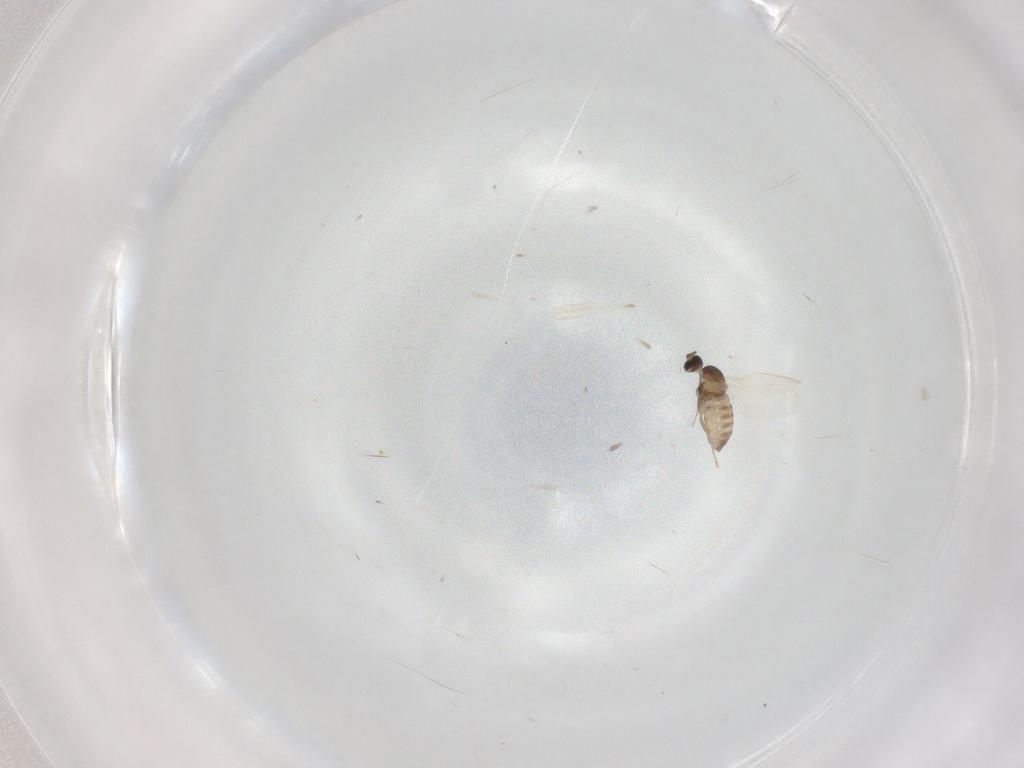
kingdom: Animalia
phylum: Arthropoda
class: Insecta
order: Diptera
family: Cecidomyiidae
